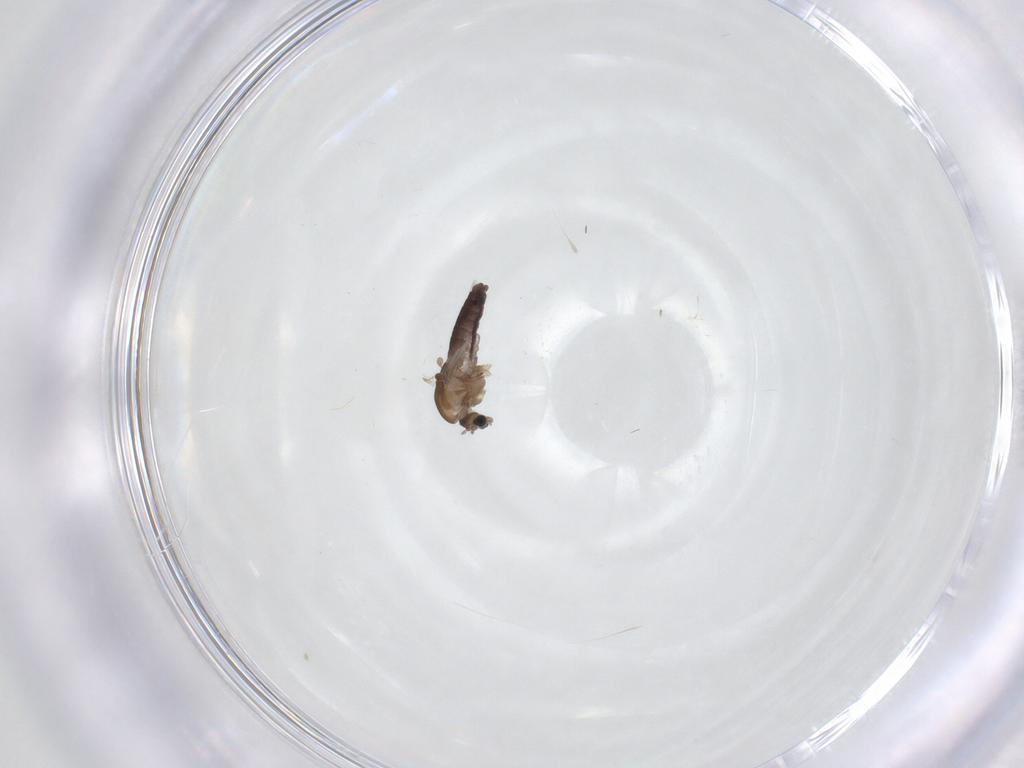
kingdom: Animalia
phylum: Arthropoda
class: Insecta
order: Diptera
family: Chironomidae
